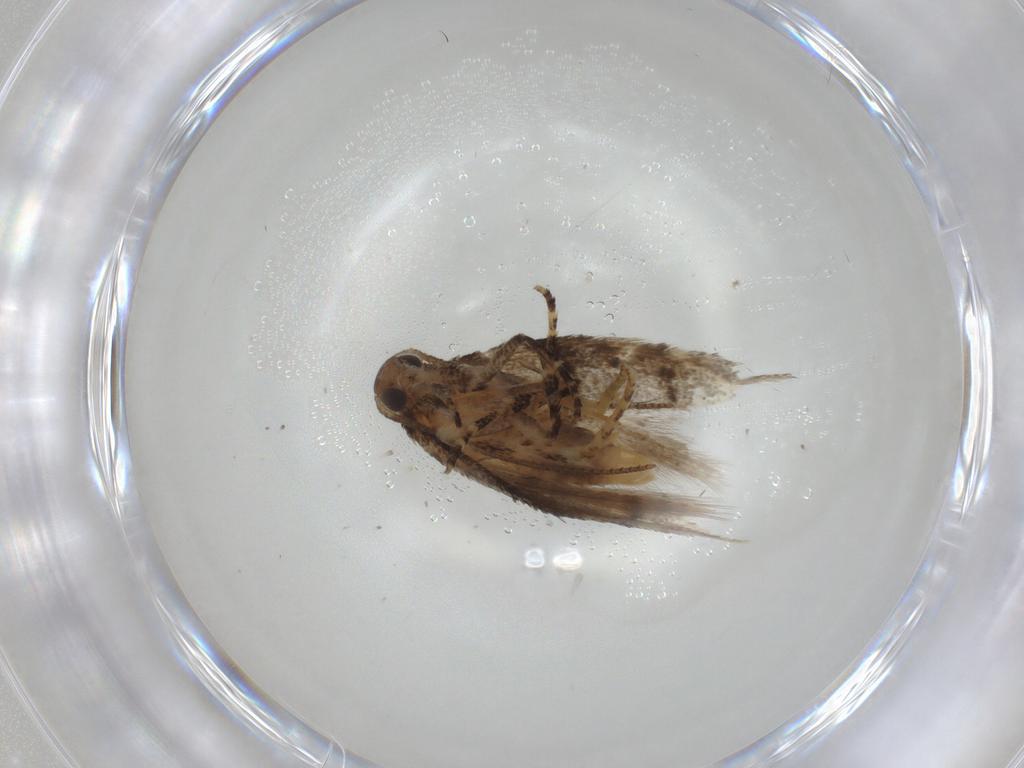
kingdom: Animalia
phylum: Arthropoda
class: Insecta
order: Lepidoptera
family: Gelechiidae
